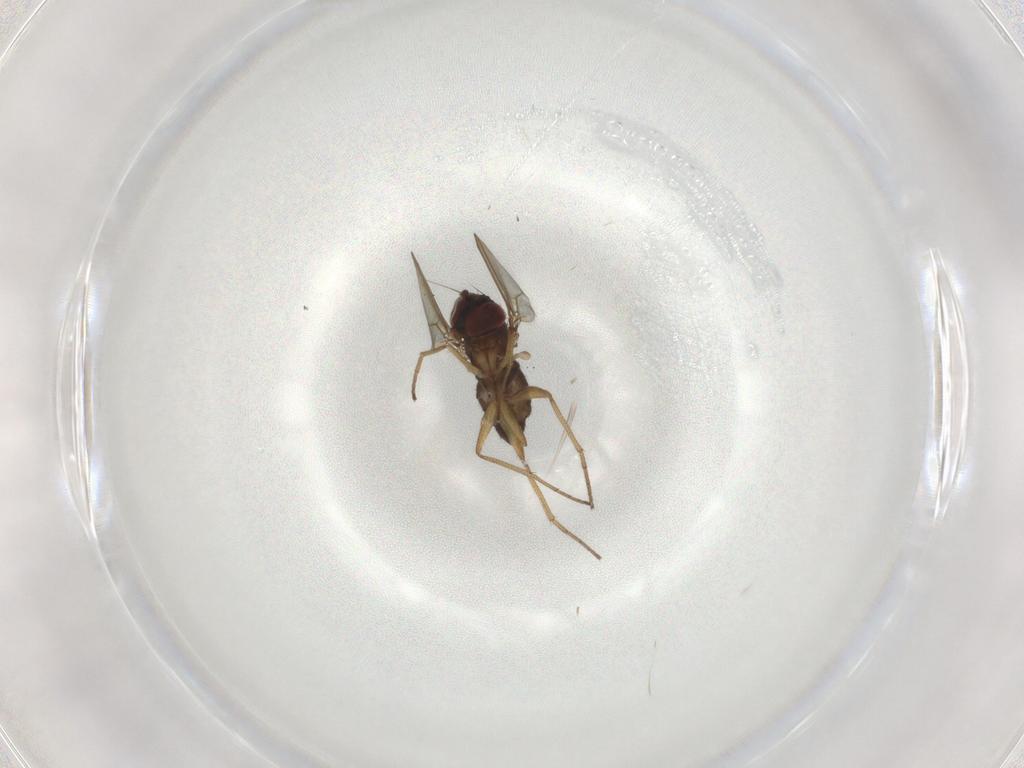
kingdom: Animalia
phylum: Arthropoda
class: Insecta
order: Diptera
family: Dolichopodidae
